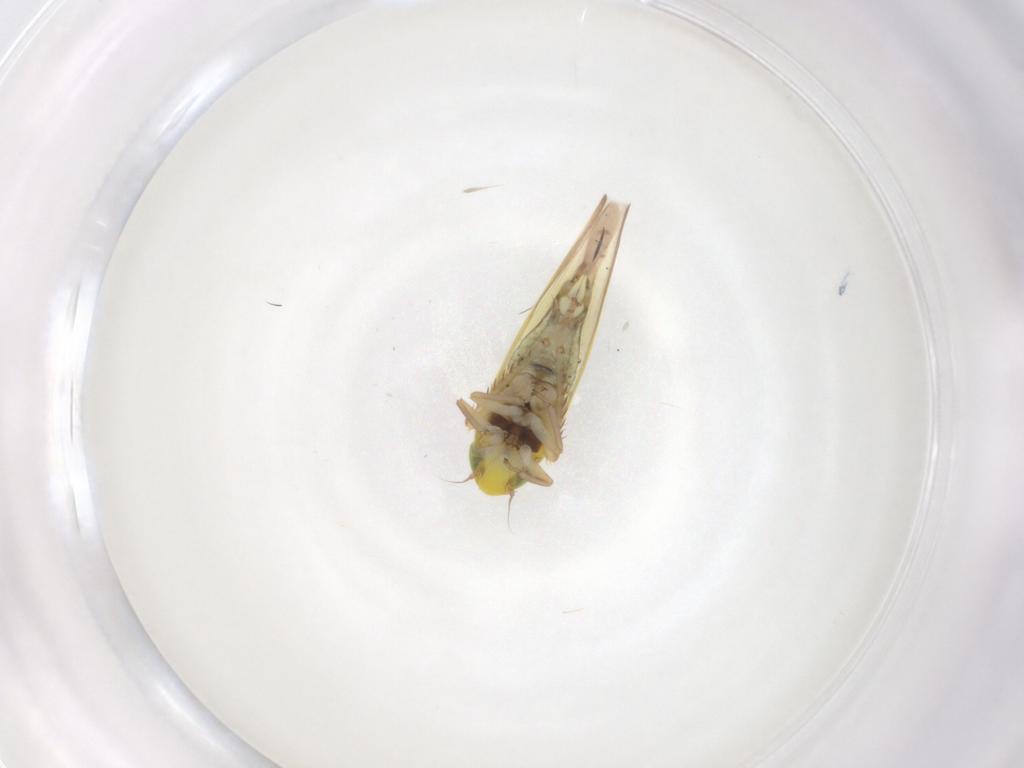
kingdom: Animalia
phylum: Arthropoda
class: Insecta
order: Hemiptera
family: Cicadellidae
